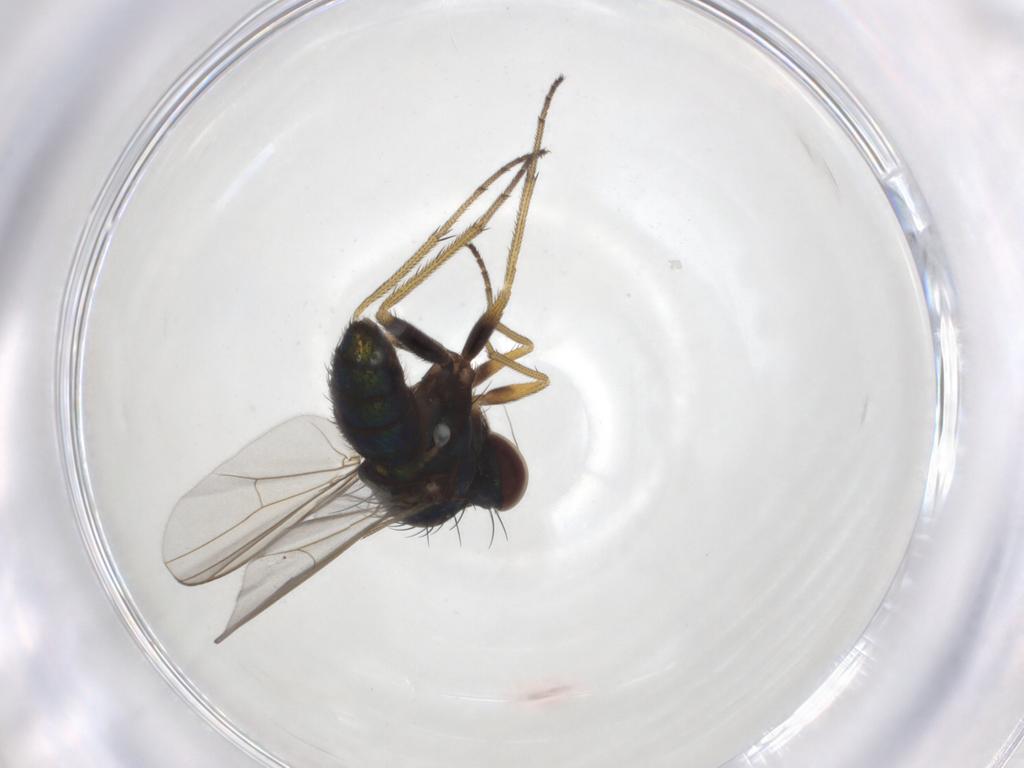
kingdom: Animalia
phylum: Arthropoda
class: Insecta
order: Diptera
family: Dolichopodidae
